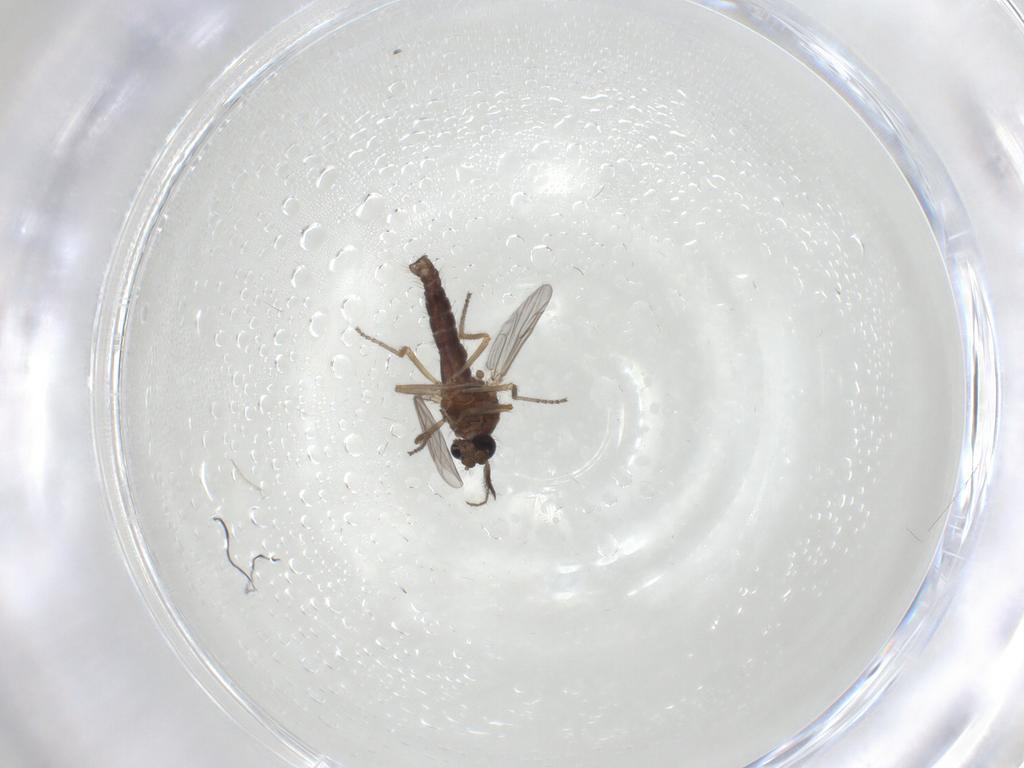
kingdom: Animalia
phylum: Arthropoda
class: Insecta
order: Diptera
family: Ceratopogonidae
